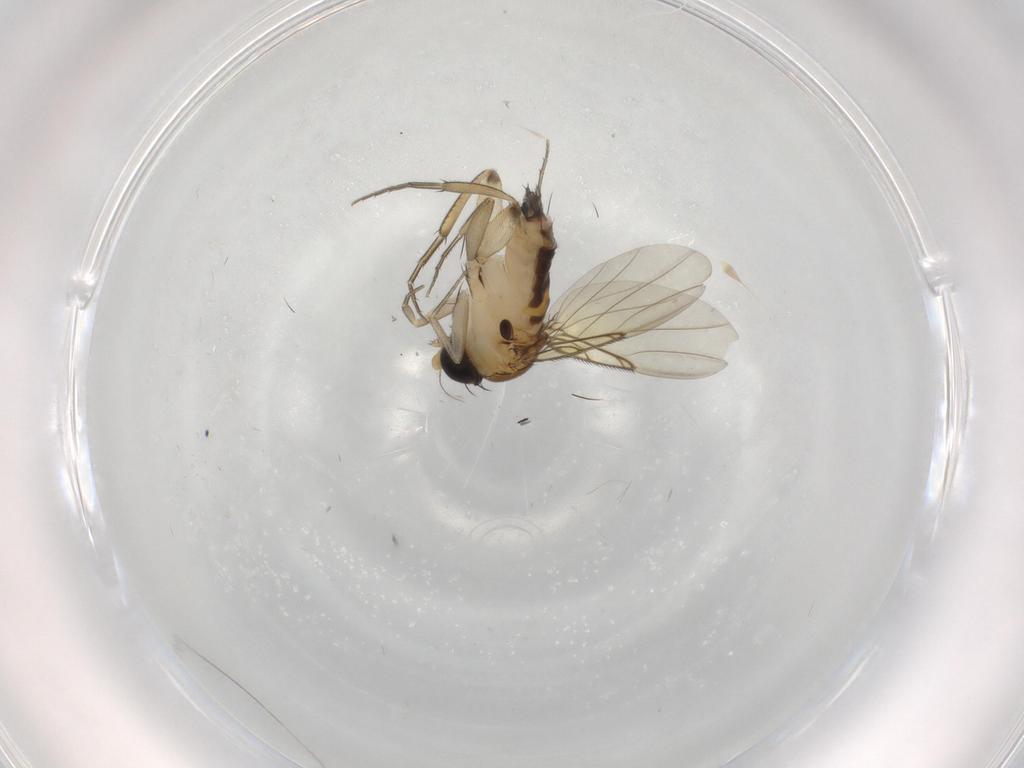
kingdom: Animalia
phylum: Arthropoda
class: Insecta
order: Diptera
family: Phoridae
